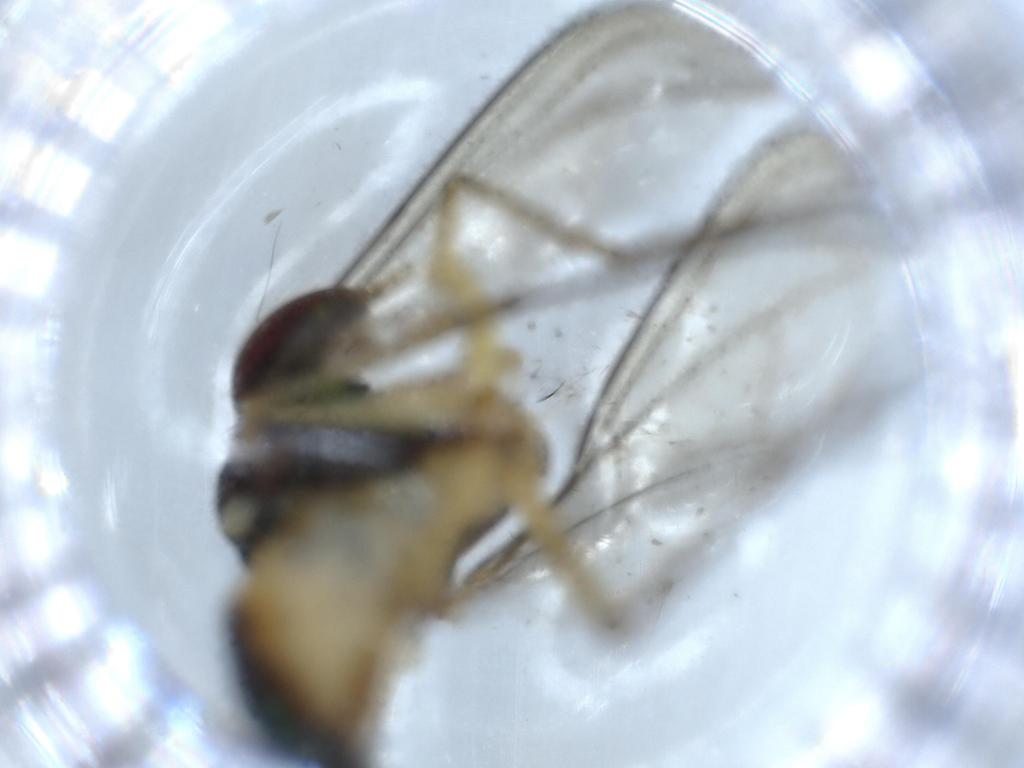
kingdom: Animalia
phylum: Arthropoda
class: Insecta
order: Diptera
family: Dolichopodidae
